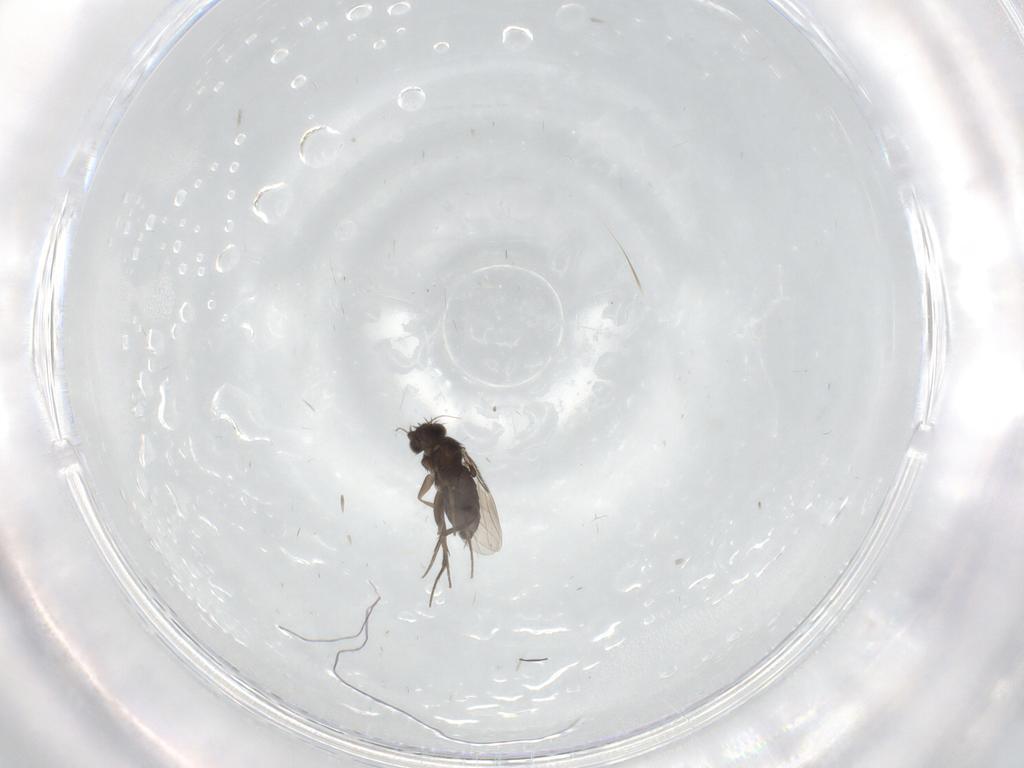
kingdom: Animalia
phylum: Arthropoda
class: Insecta
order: Diptera
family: Phoridae
